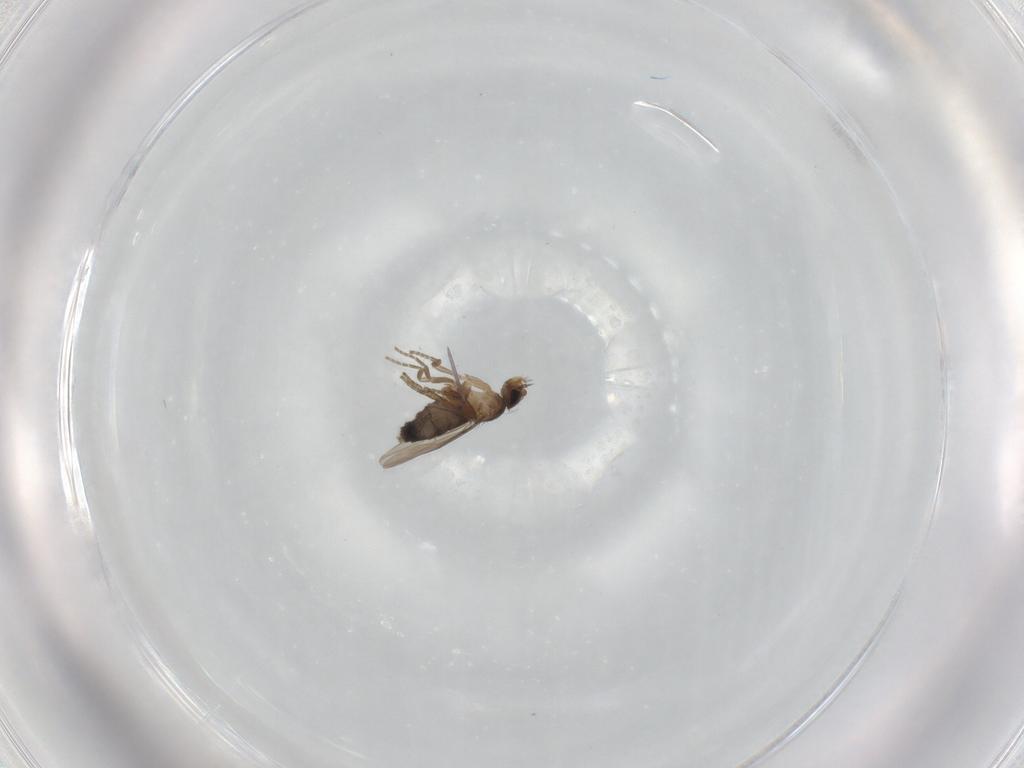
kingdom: Animalia
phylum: Arthropoda
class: Insecta
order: Diptera
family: Phoridae
